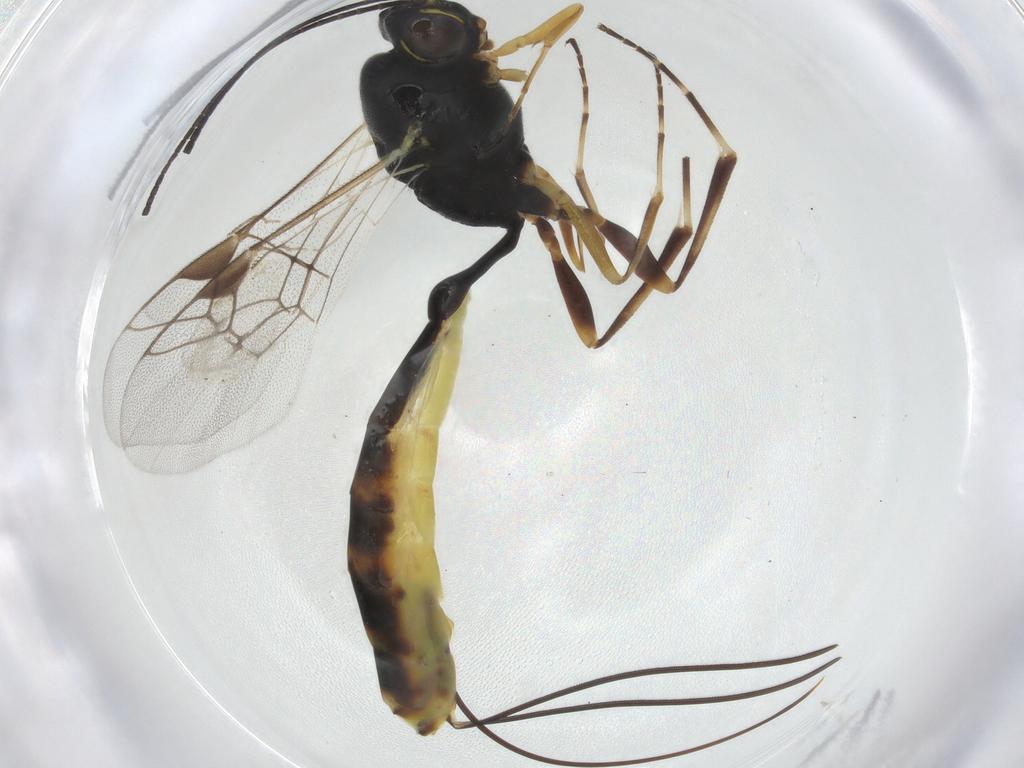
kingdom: Animalia
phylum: Arthropoda
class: Insecta
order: Hymenoptera
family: Ichneumonidae
